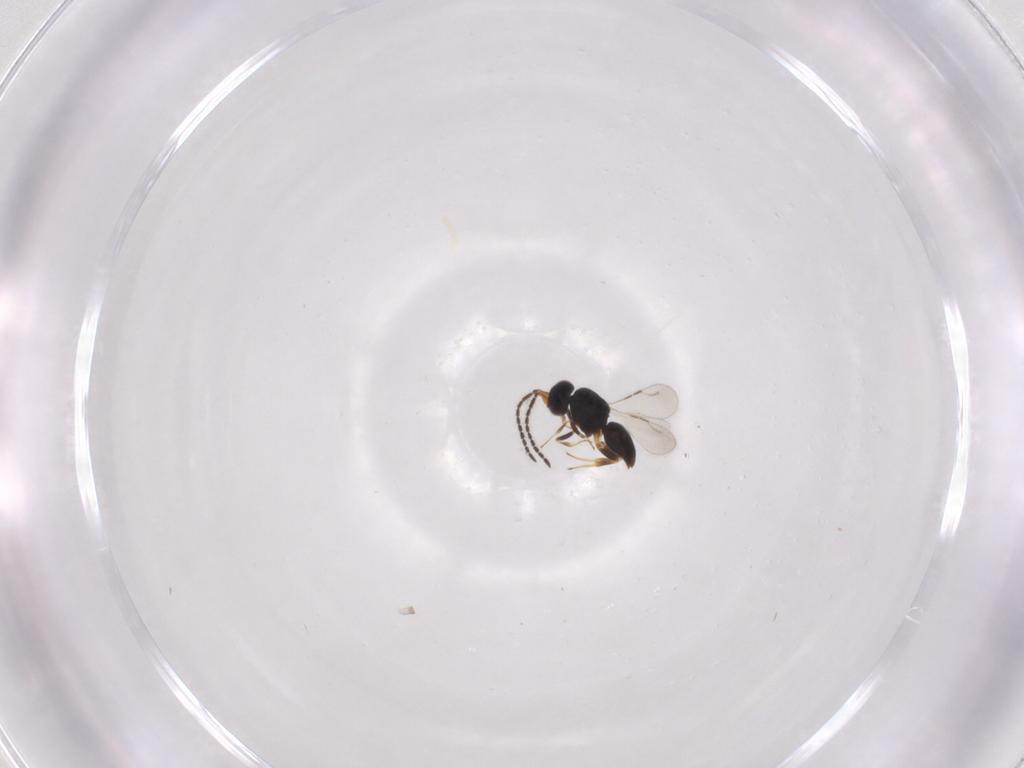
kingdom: Animalia
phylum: Arthropoda
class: Insecta
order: Hymenoptera
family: Ceraphronidae
